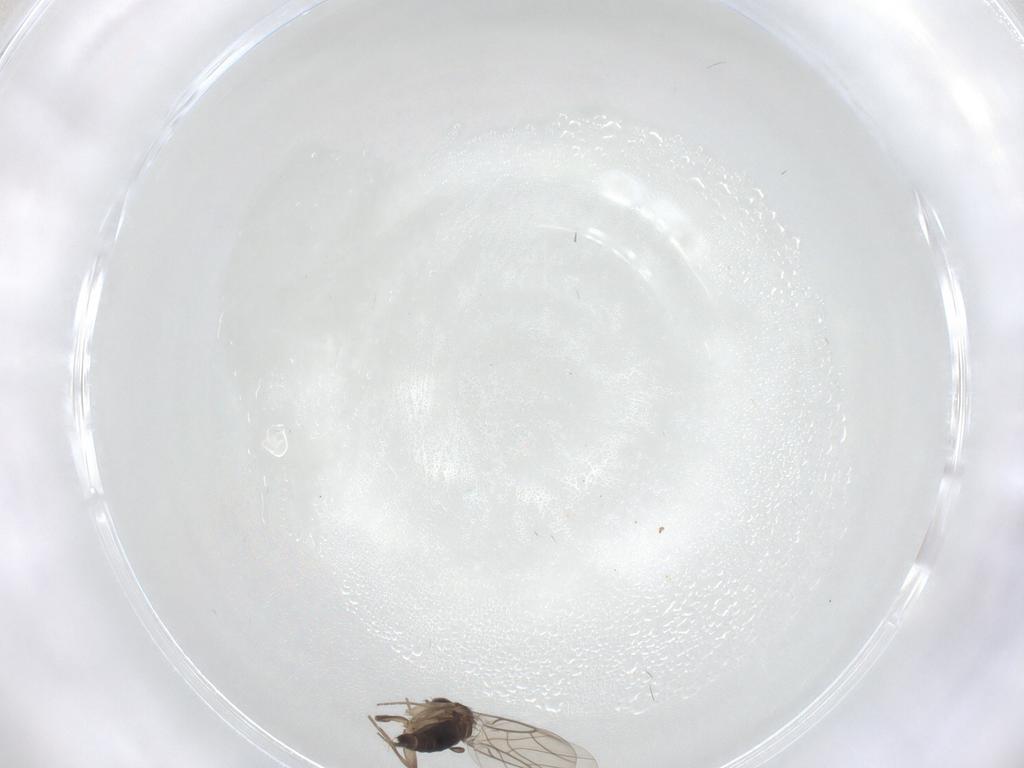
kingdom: Animalia
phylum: Arthropoda
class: Insecta
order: Diptera
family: Phoridae
